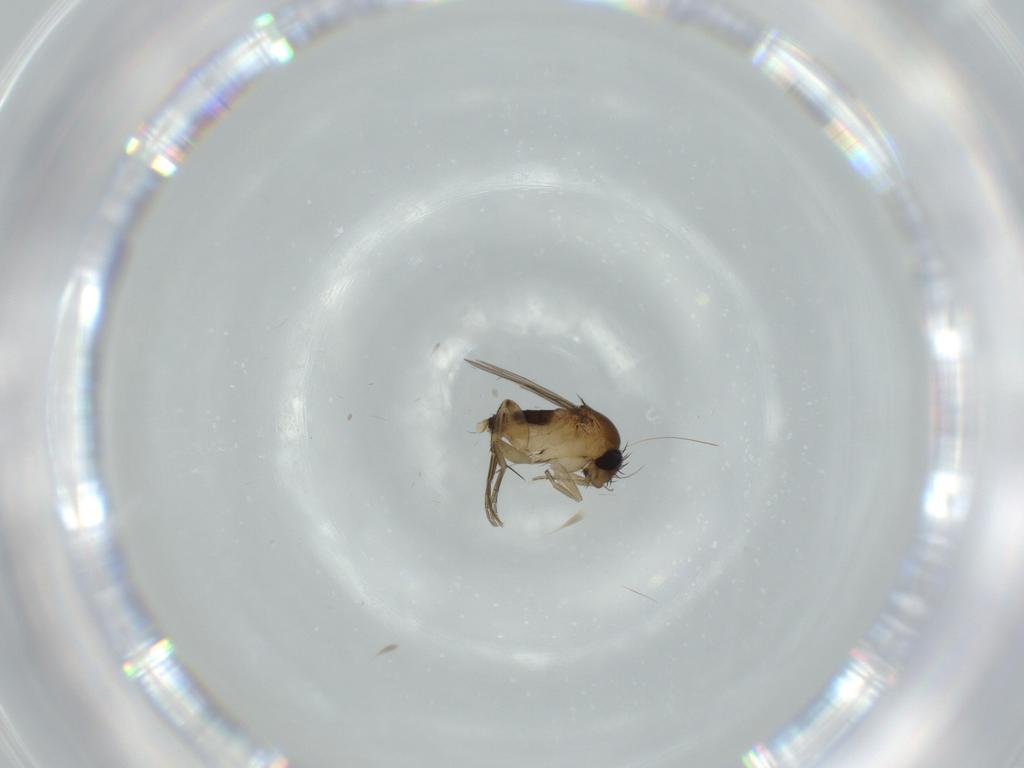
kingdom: Animalia
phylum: Arthropoda
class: Insecta
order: Diptera
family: Phoridae
